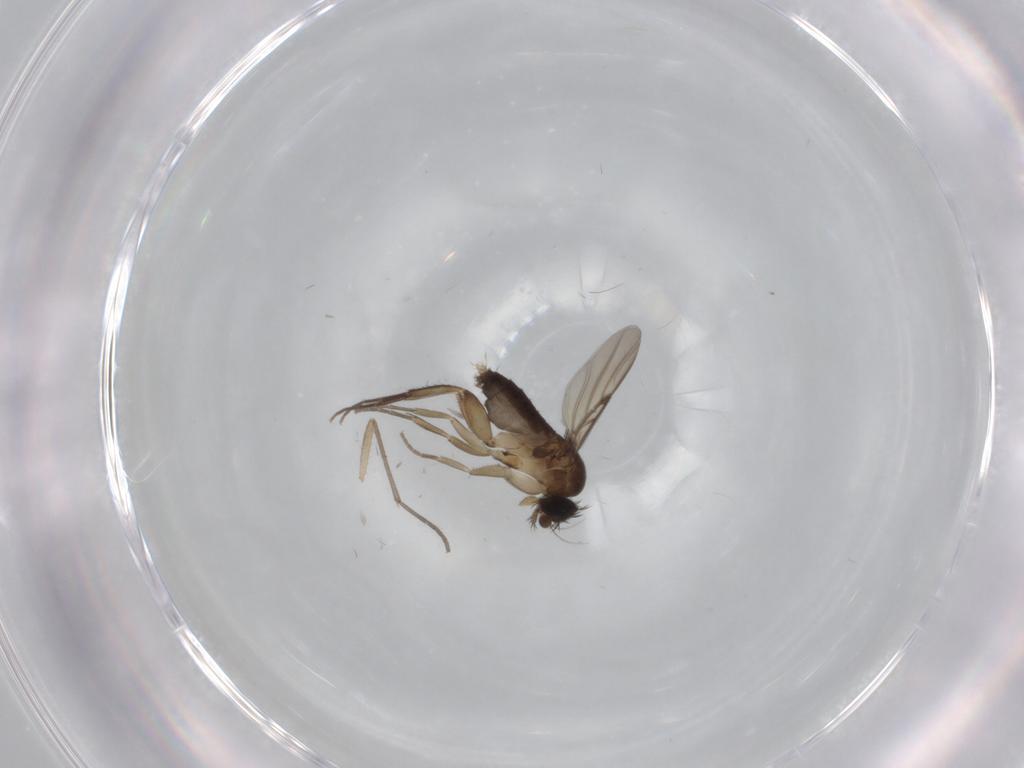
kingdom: Animalia
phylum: Arthropoda
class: Insecta
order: Diptera
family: Phoridae
